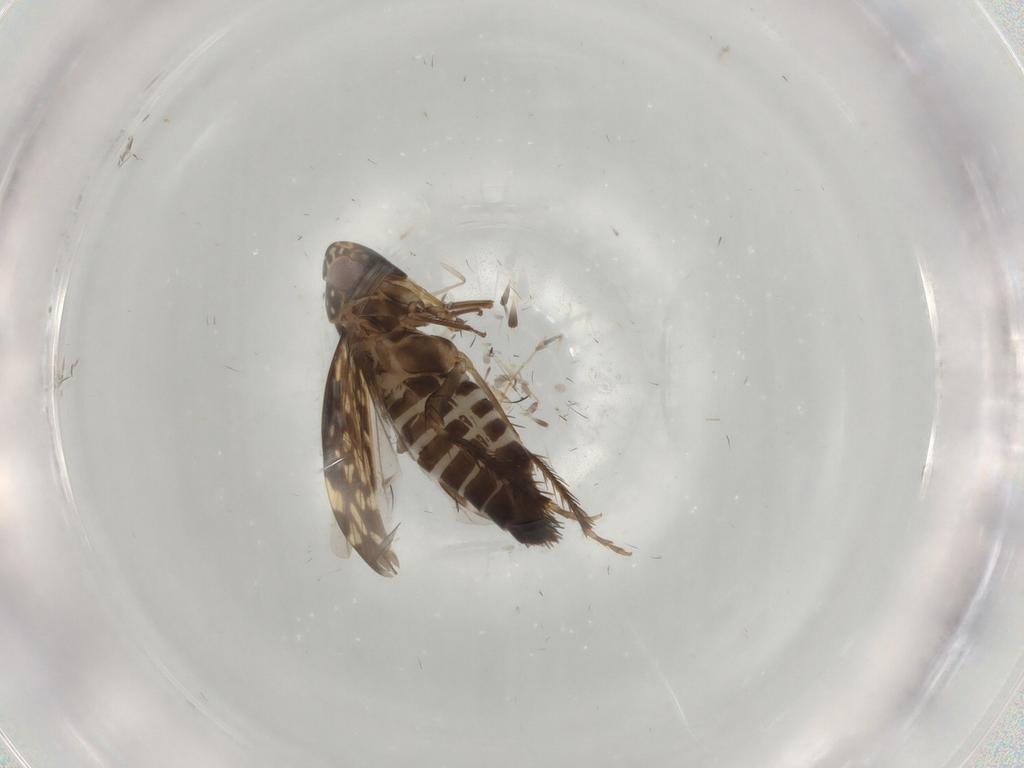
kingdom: Animalia
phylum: Arthropoda
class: Insecta
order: Hemiptera
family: Cicadellidae
